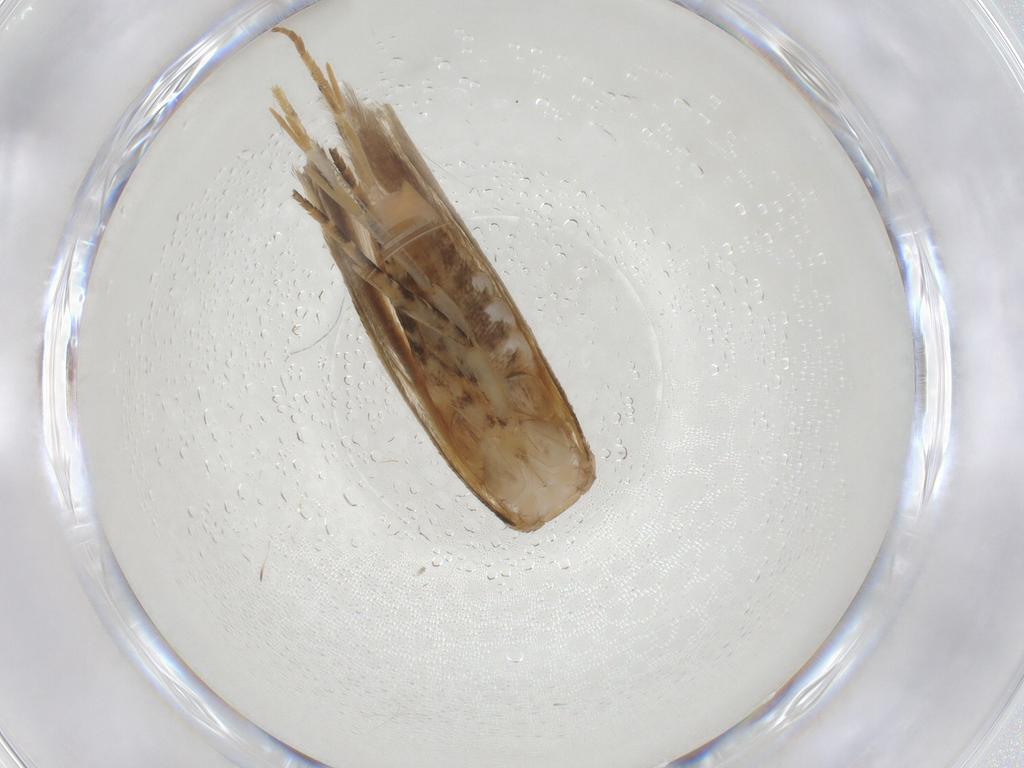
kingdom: Animalia
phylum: Arthropoda
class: Insecta
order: Lepidoptera
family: Gelechiidae
